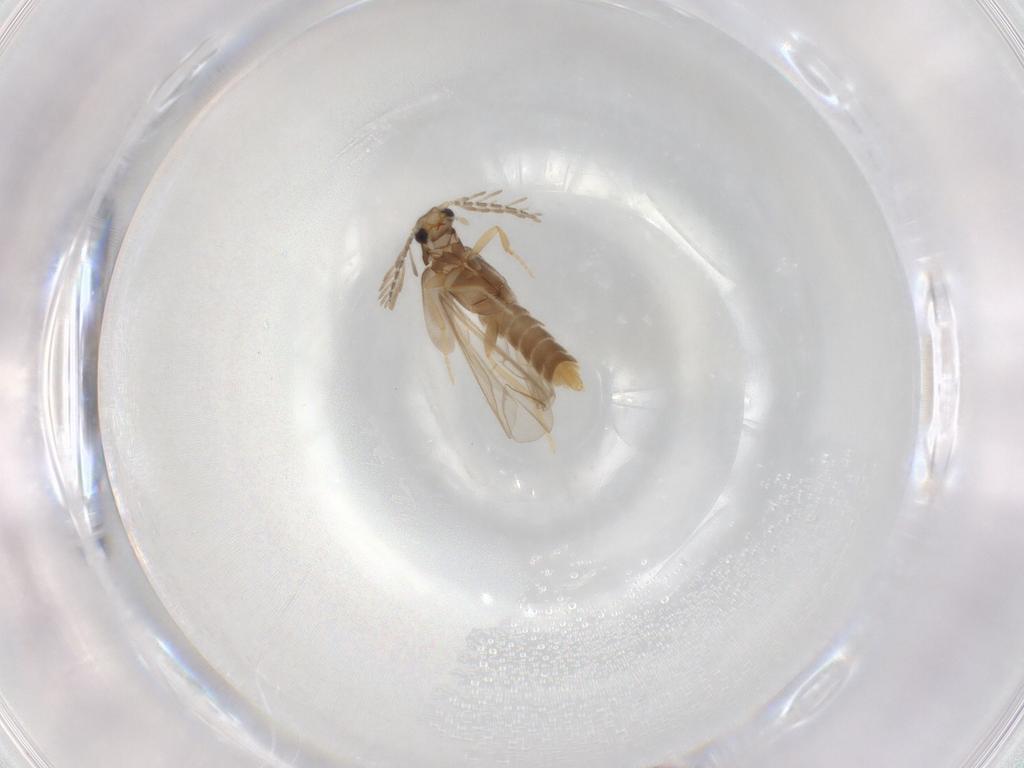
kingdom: Animalia
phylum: Arthropoda
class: Insecta
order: Coleoptera
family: Phengodidae
